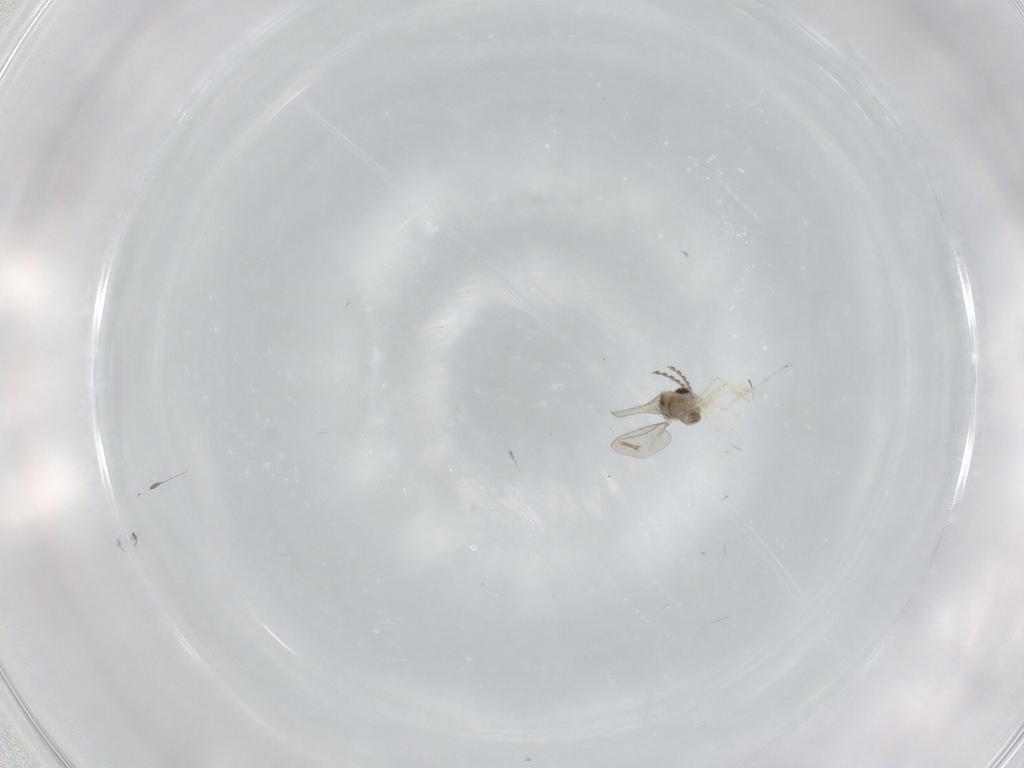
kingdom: Animalia
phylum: Arthropoda
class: Insecta
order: Diptera
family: Cecidomyiidae
